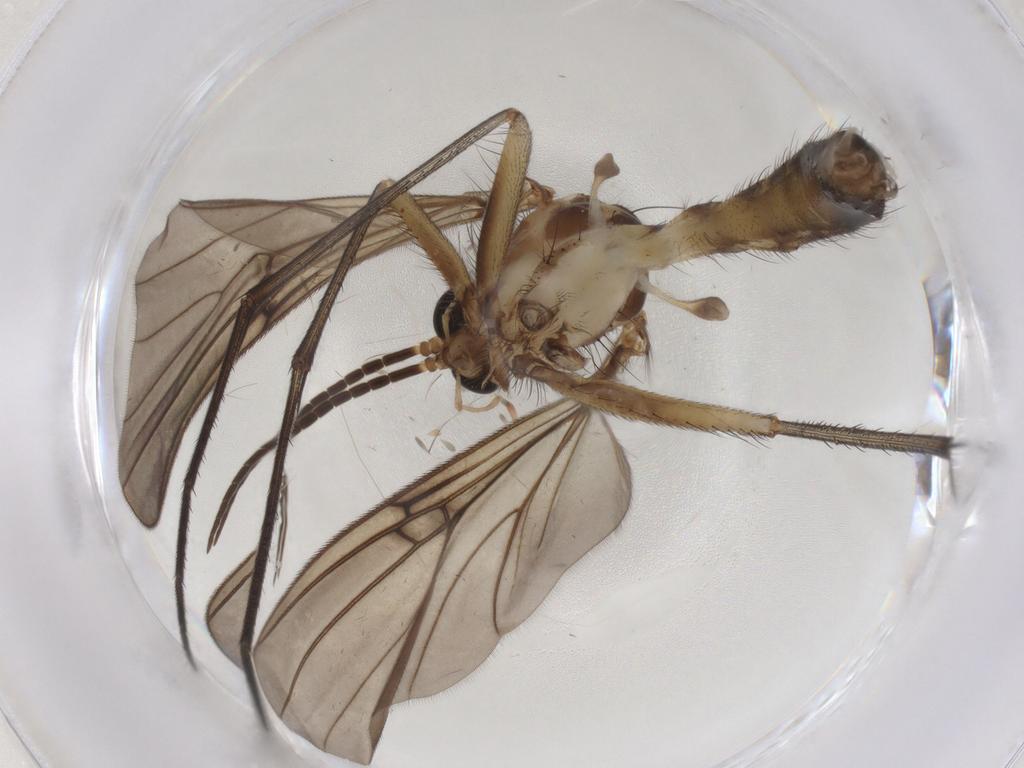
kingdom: Animalia
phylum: Arthropoda
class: Insecta
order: Diptera
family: Mycetophilidae
